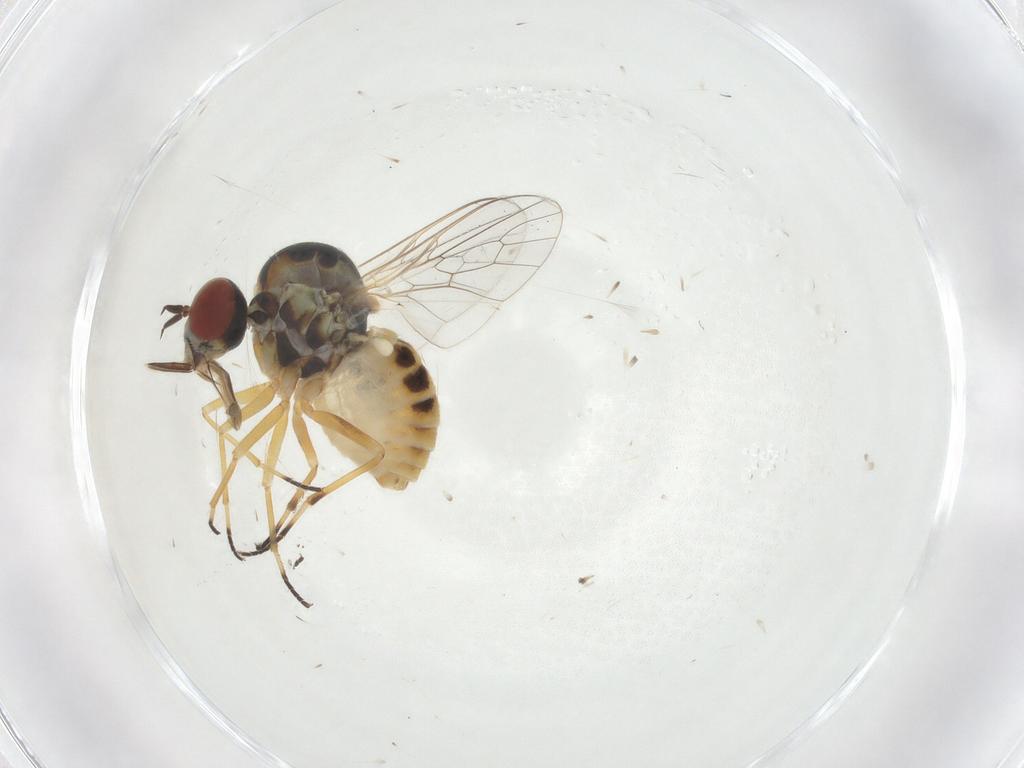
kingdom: Animalia
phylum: Arthropoda
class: Insecta
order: Diptera
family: Mythicomyiidae
